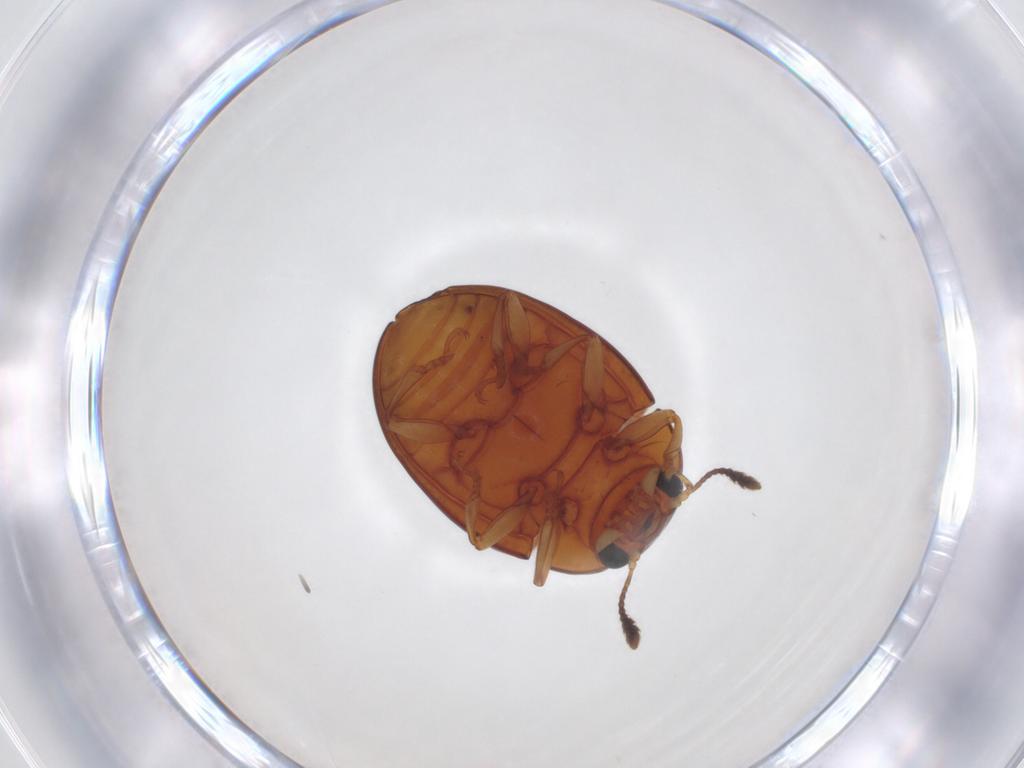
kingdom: Animalia
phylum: Arthropoda
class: Insecta
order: Coleoptera
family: Erotylidae
